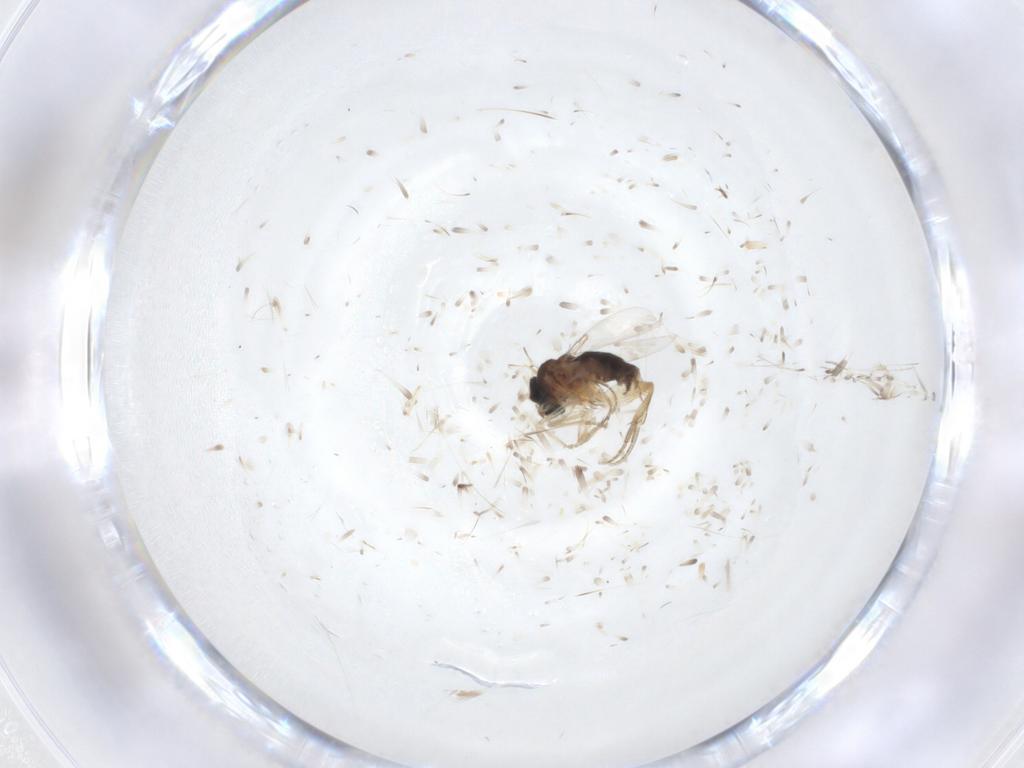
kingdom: Animalia
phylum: Arthropoda
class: Insecta
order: Diptera
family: Phoridae
